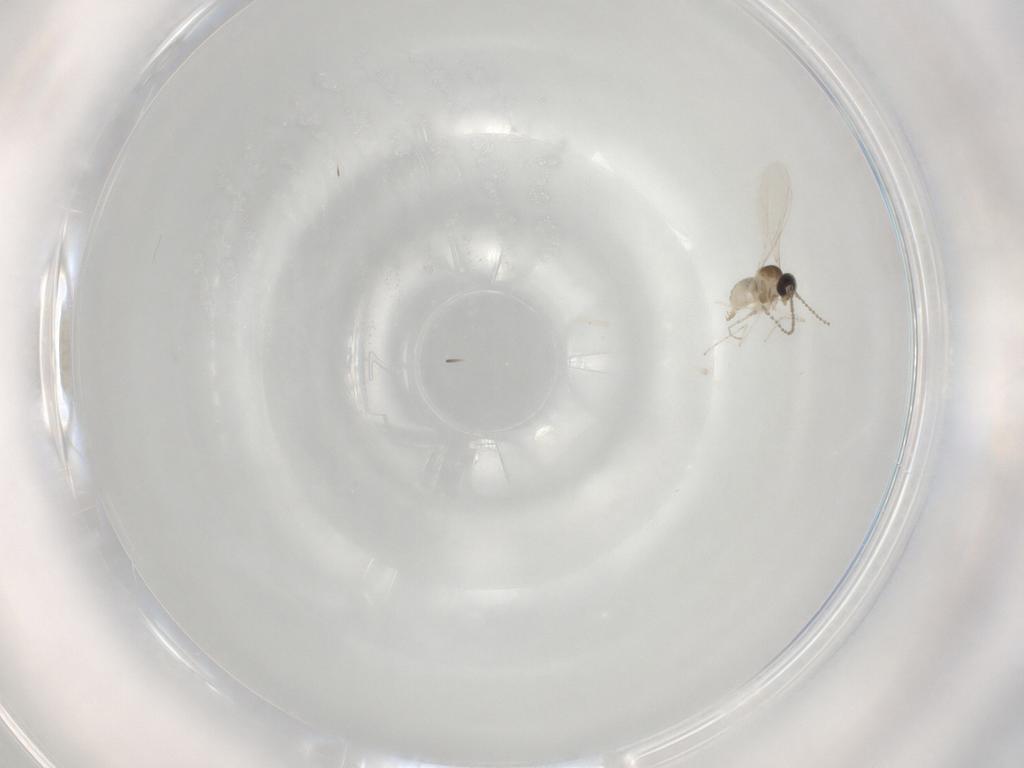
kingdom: Animalia
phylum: Arthropoda
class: Insecta
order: Diptera
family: Cecidomyiidae
